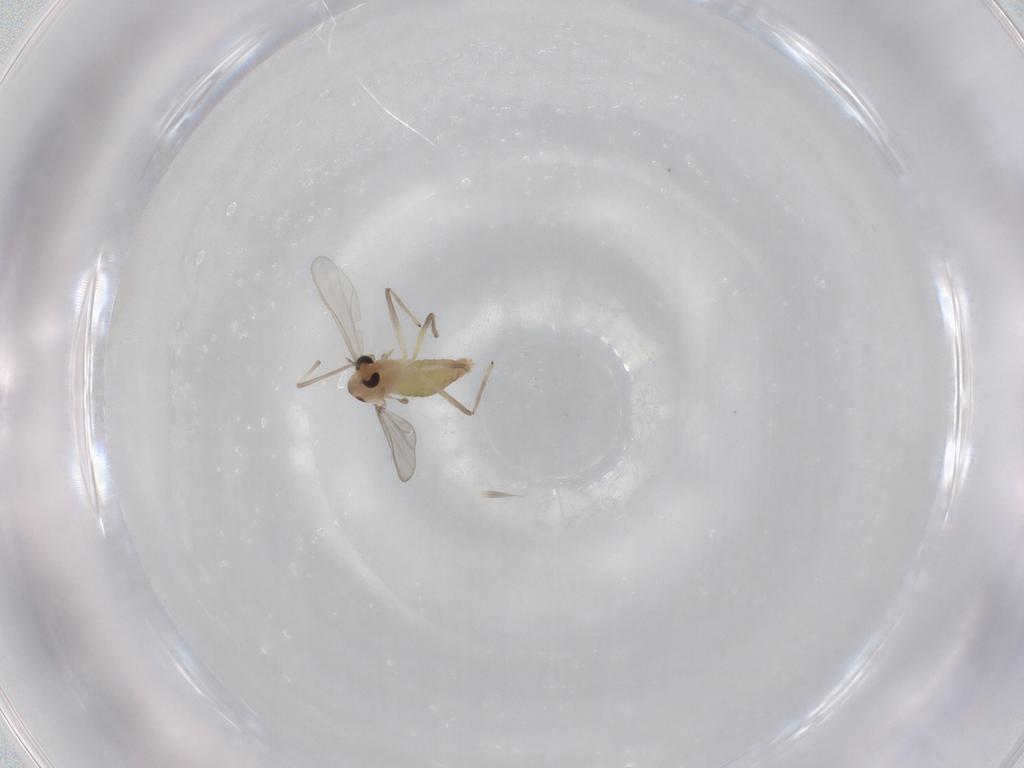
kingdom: Animalia
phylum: Arthropoda
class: Insecta
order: Diptera
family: Chironomidae
